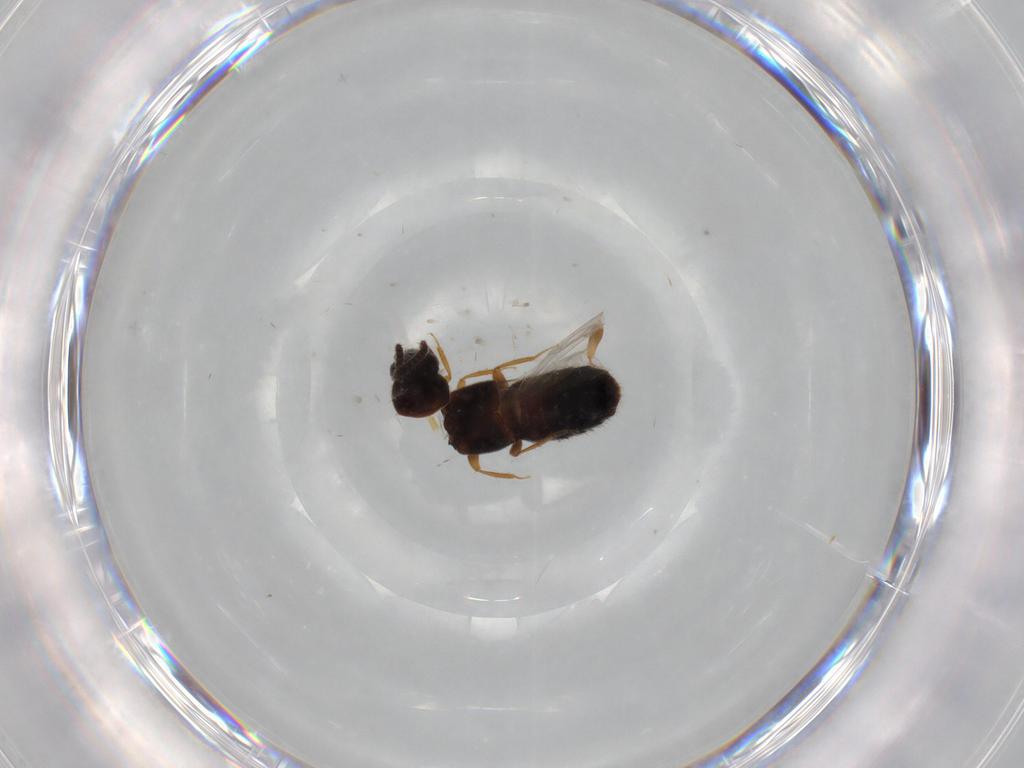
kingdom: Animalia
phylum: Arthropoda
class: Insecta
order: Coleoptera
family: Staphylinidae
